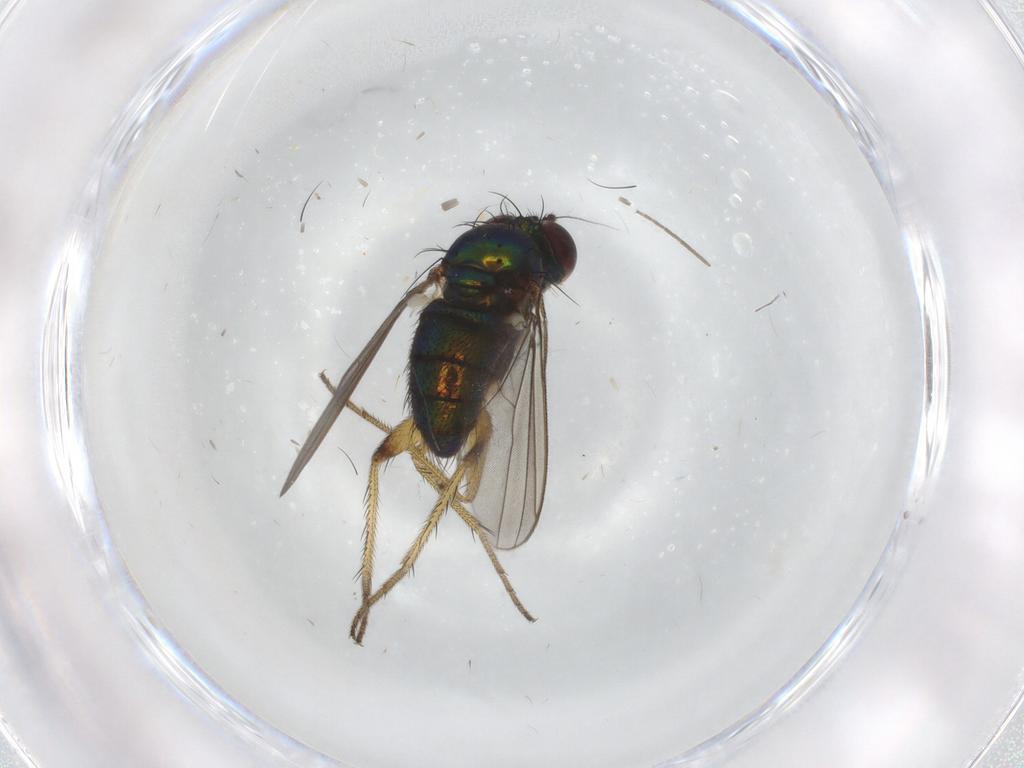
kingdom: Animalia
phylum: Arthropoda
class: Insecta
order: Diptera
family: Dolichopodidae
